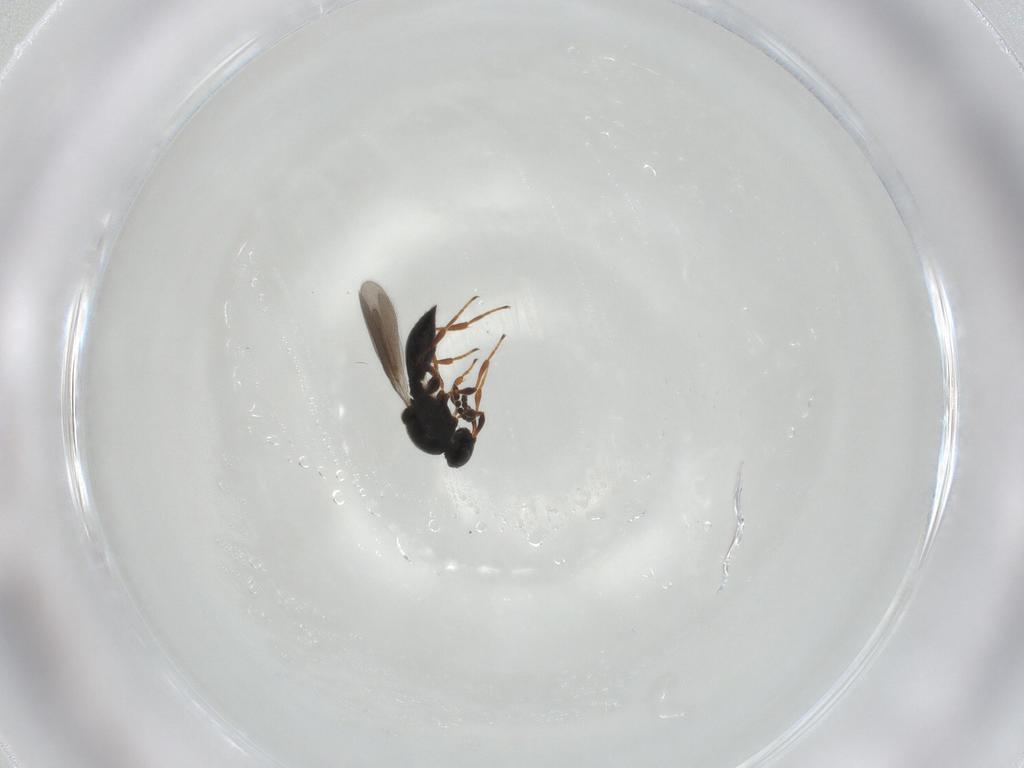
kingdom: Animalia
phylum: Arthropoda
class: Insecta
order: Hymenoptera
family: Platygastridae
